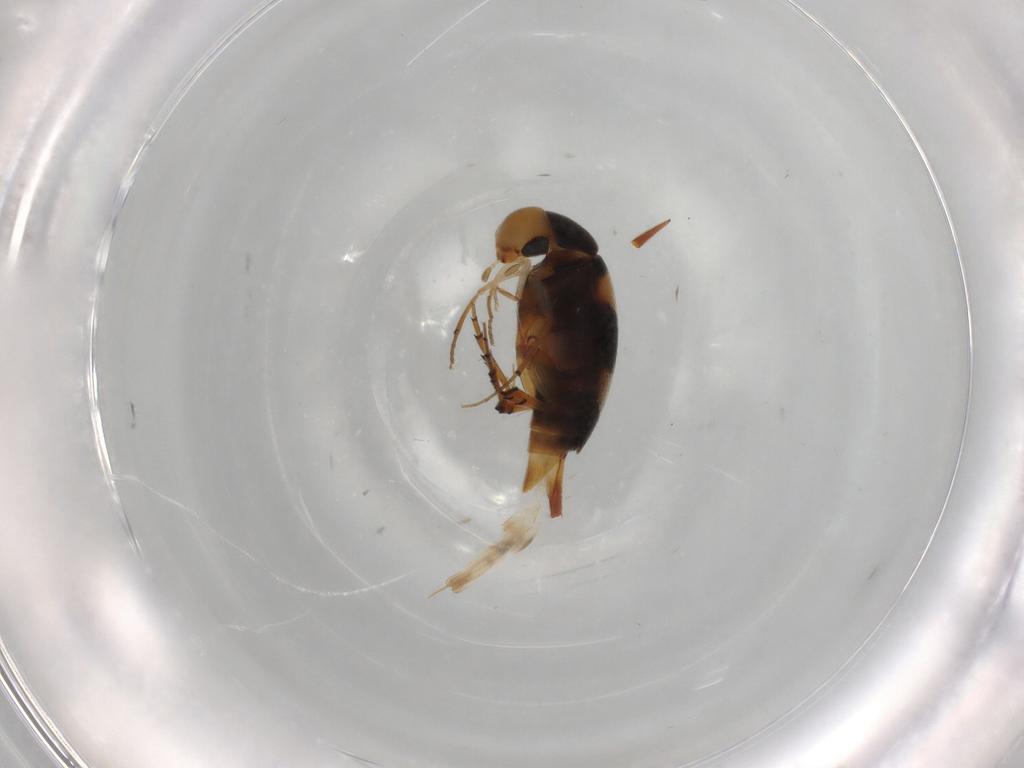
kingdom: Animalia
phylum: Arthropoda
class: Insecta
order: Coleoptera
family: Mordellidae
